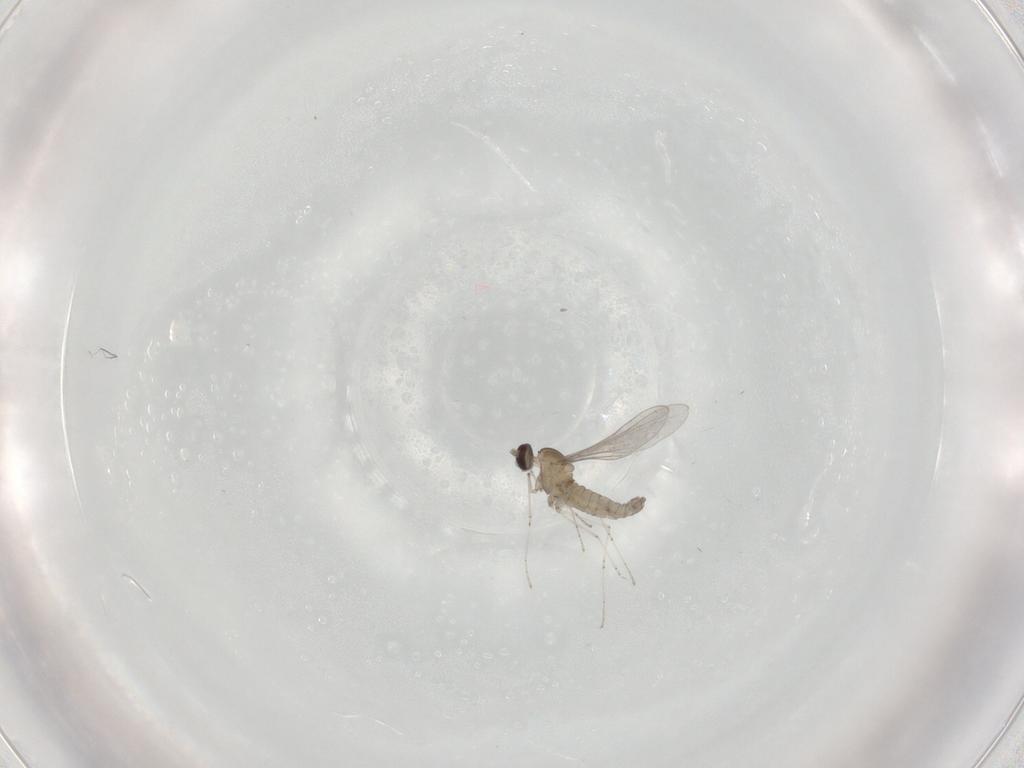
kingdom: Animalia
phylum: Arthropoda
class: Insecta
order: Diptera
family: Cecidomyiidae
